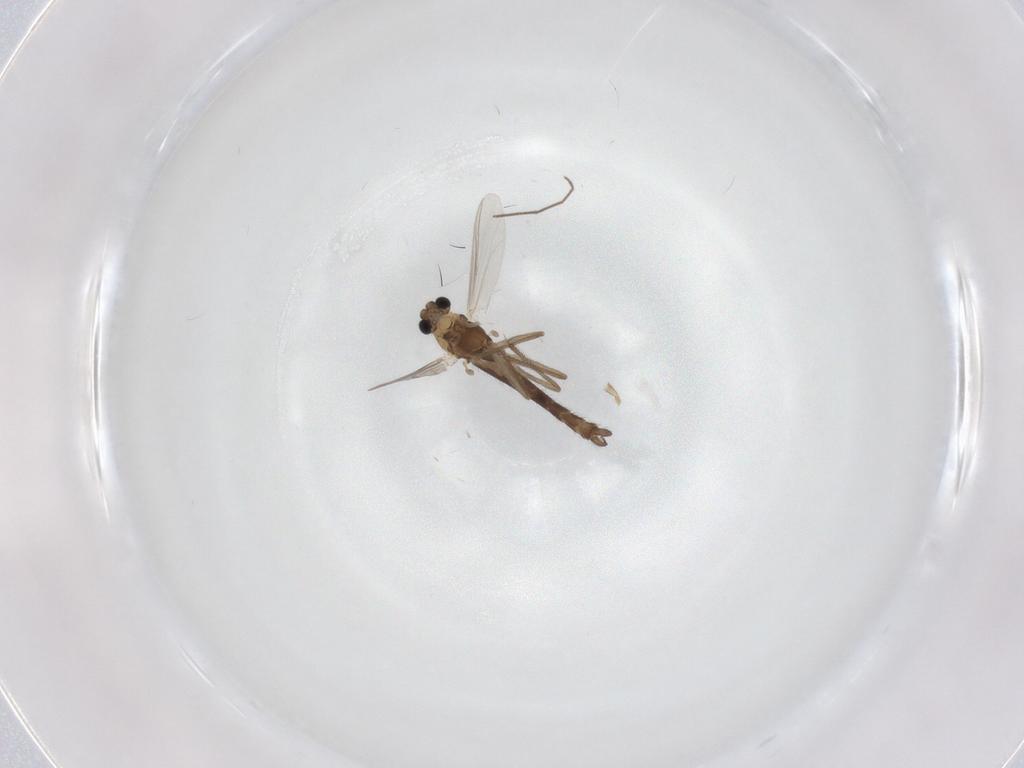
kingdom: Animalia
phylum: Arthropoda
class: Insecta
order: Diptera
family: Chironomidae
